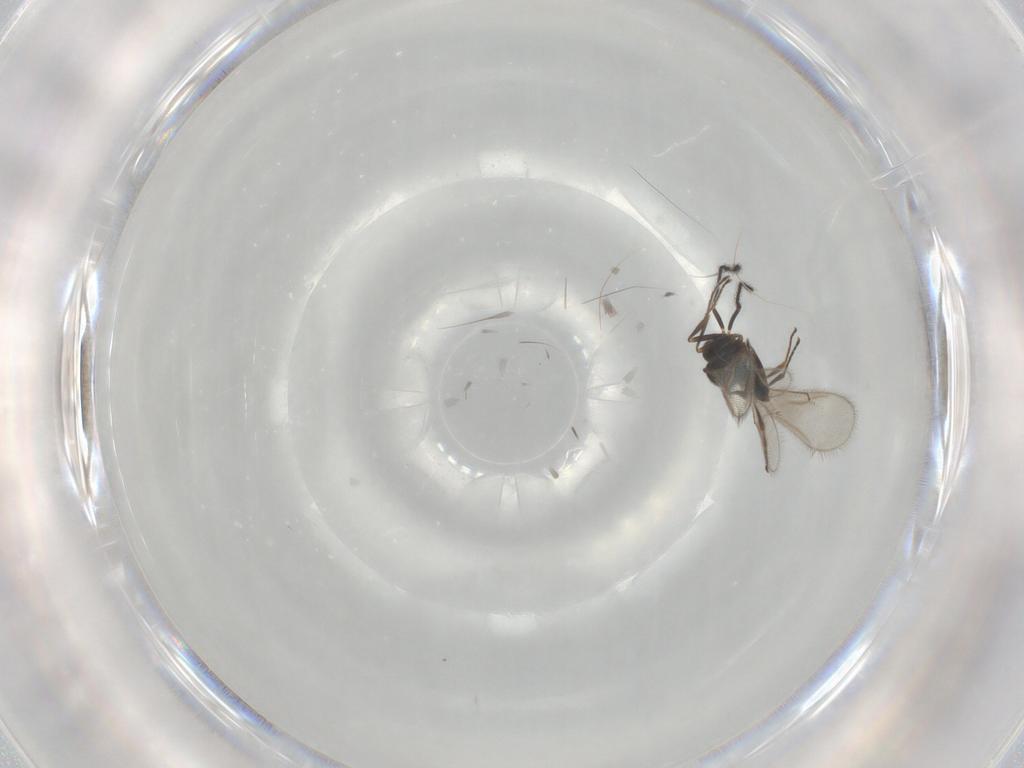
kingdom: Animalia
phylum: Arthropoda
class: Insecta
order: Hymenoptera
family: Scelionidae
